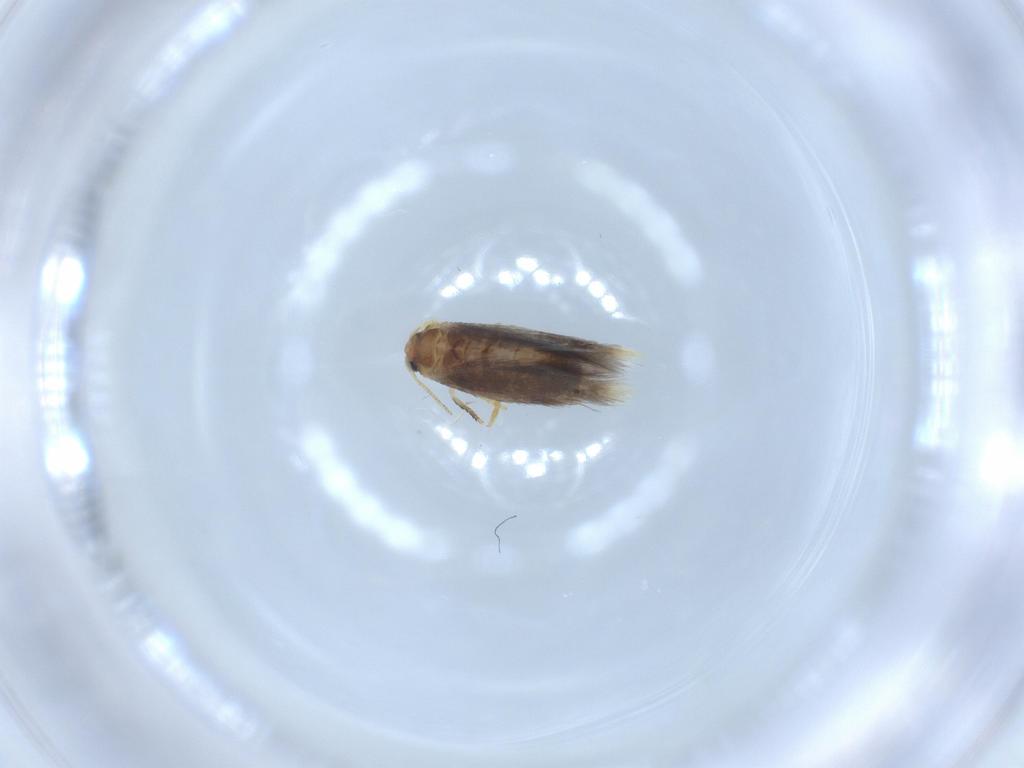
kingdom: Animalia
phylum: Arthropoda
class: Insecta
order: Lepidoptera
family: Nepticulidae
